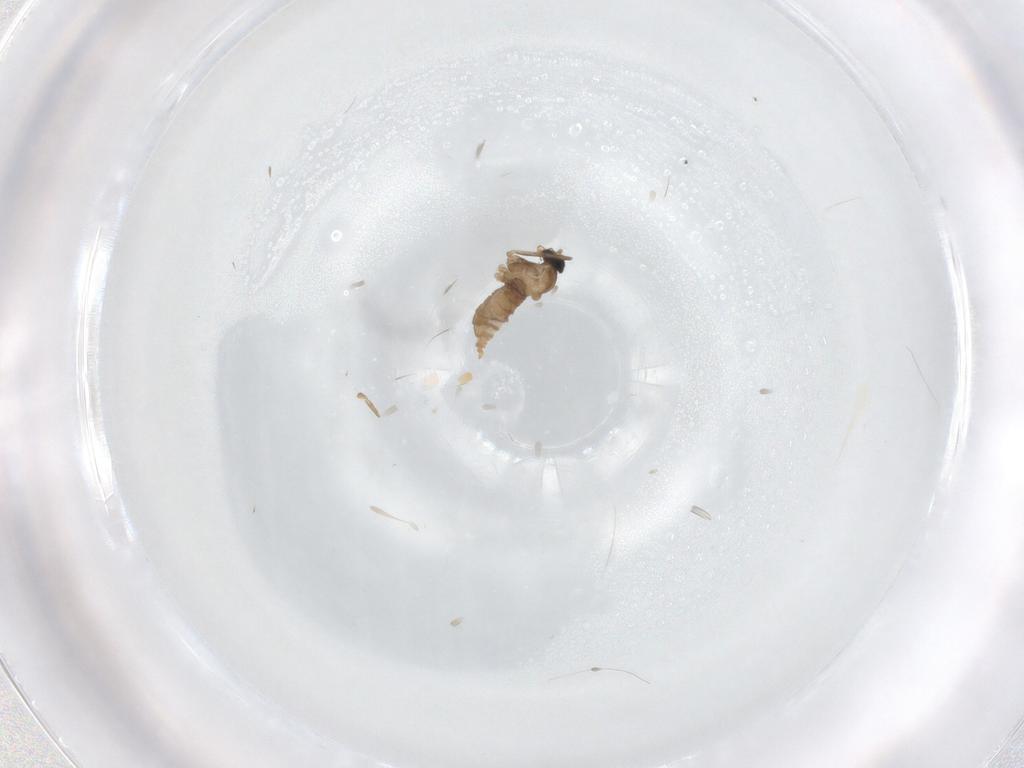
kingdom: Animalia
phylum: Arthropoda
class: Insecta
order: Diptera
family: Cecidomyiidae
